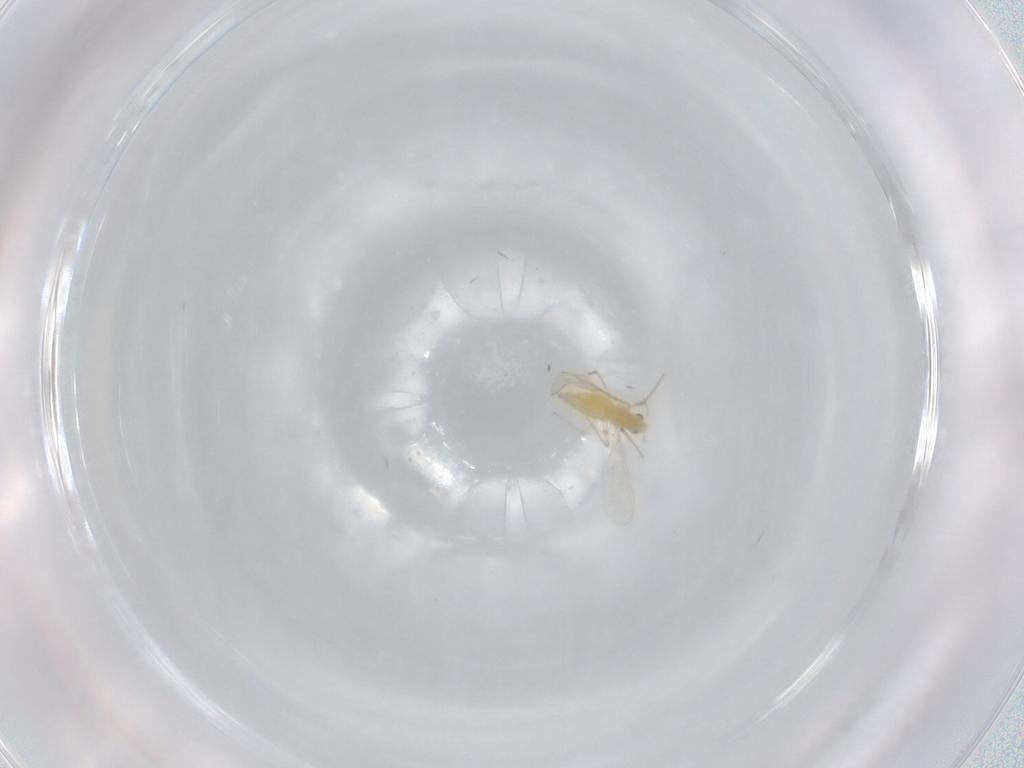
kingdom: Animalia
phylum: Arthropoda
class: Insecta
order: Diptera
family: Chironomidae
